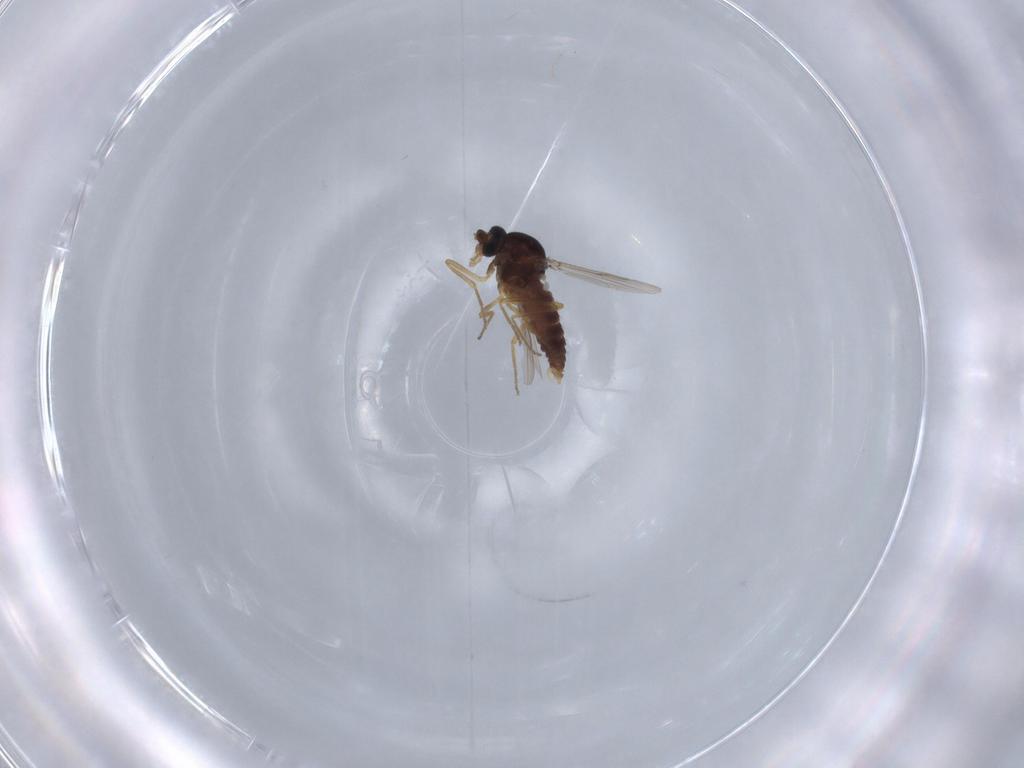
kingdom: Animalia
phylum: Arthropoda
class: Insecta
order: Diptera
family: Ceratopogonidae
